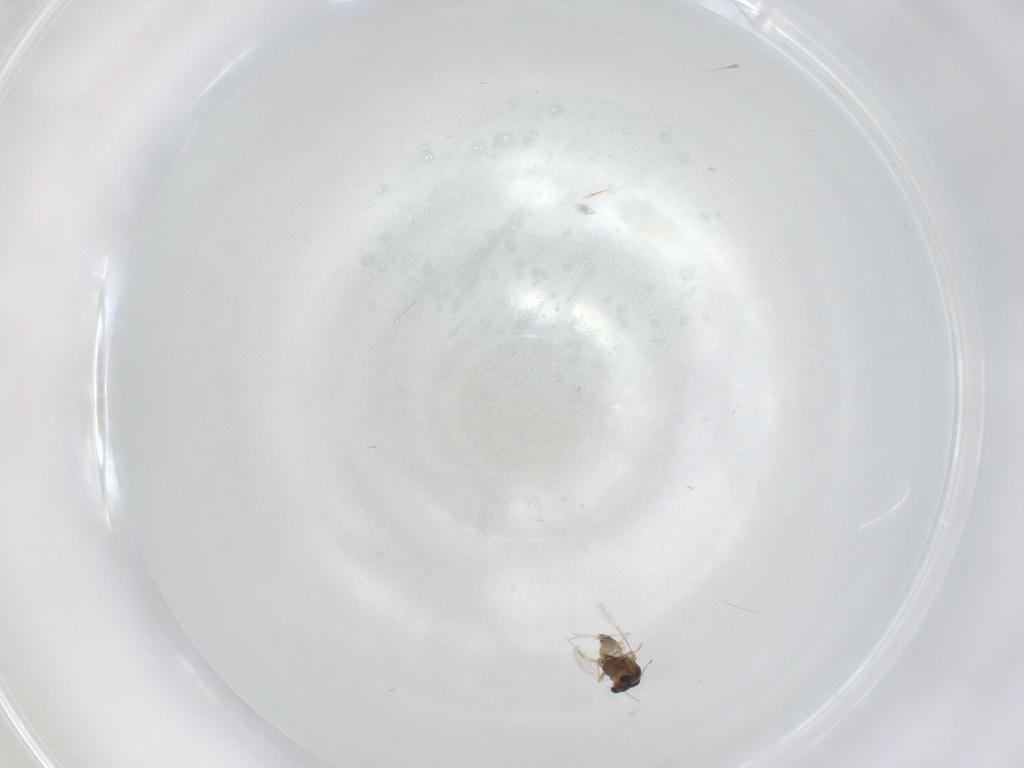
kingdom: Animalia
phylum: Arthropoda
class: Insecta
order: Diptera
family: Chironomidae
